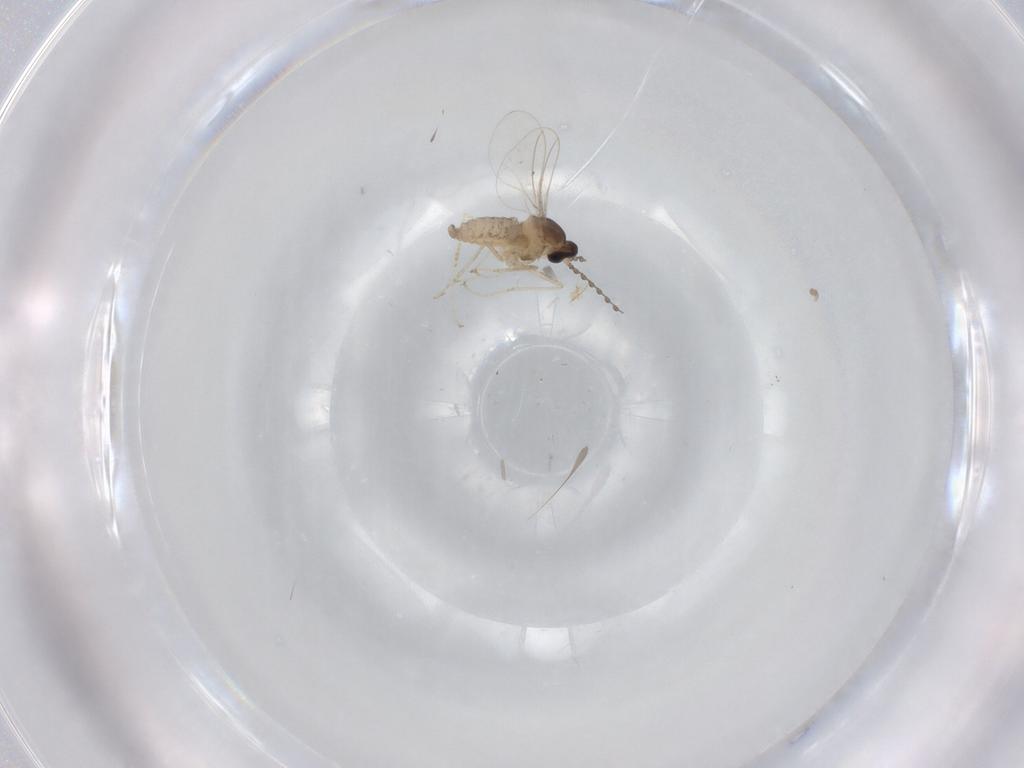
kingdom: Animalia
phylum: Arthropoda
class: Insecta
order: Diptera
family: Cecidomyiidae
